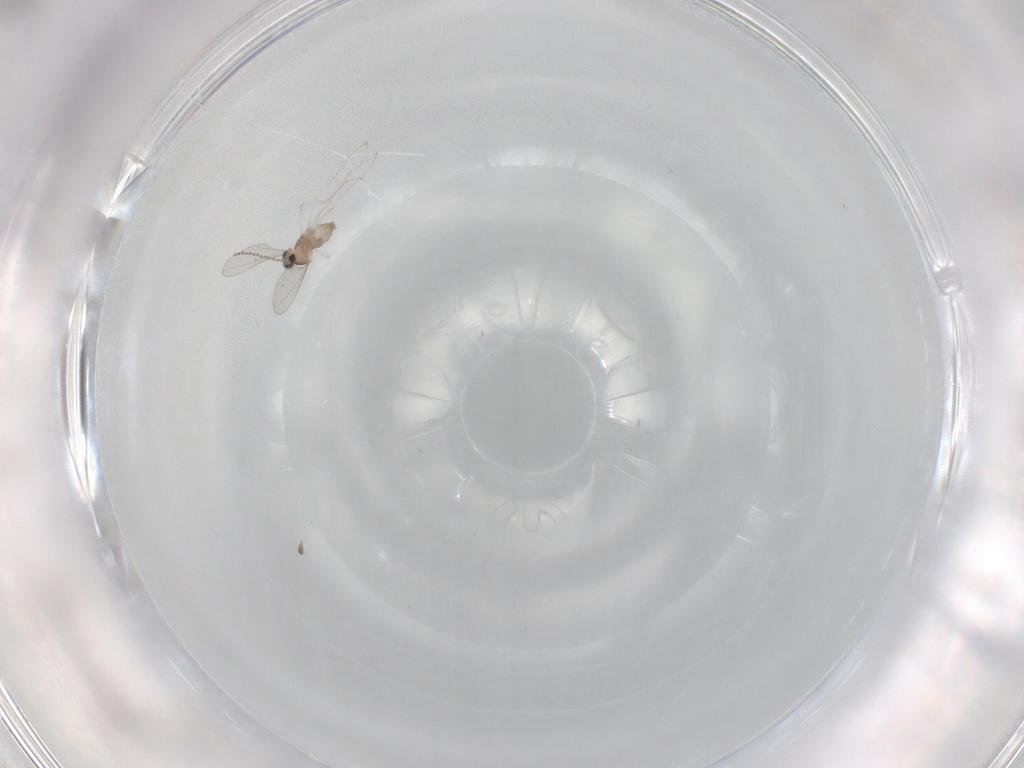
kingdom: Animalia
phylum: Arthropoda
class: Insecta
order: Diptera
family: Cecidomyiidae
